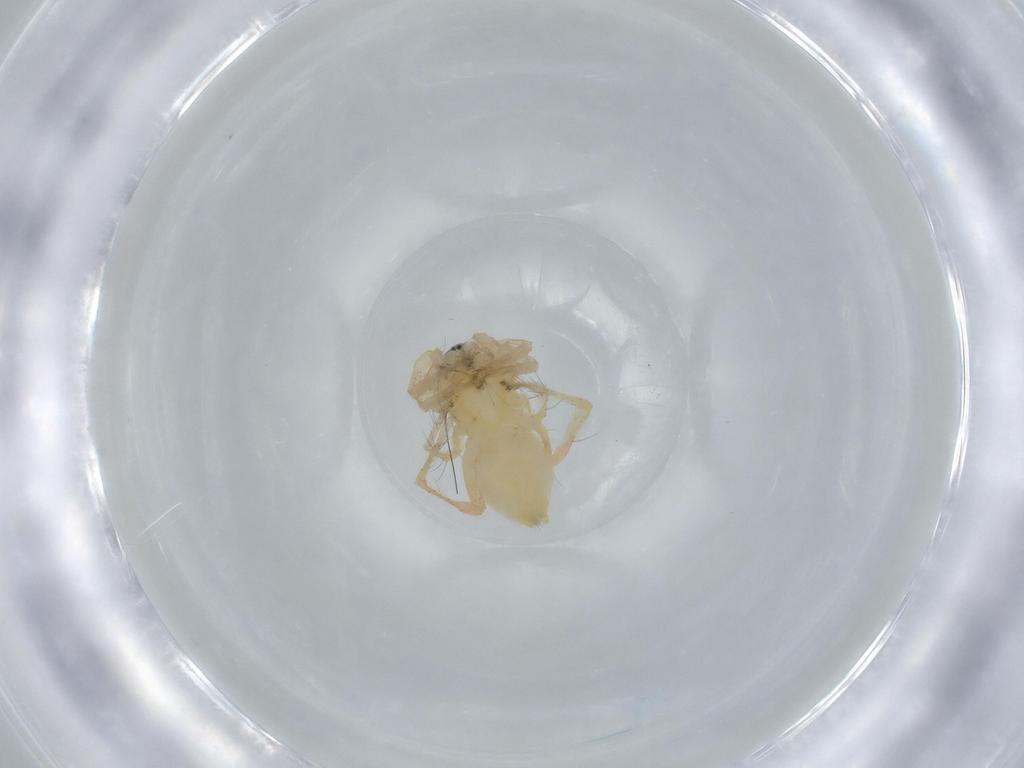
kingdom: Animalia
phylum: Arthropoda
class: Arachnida
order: Araneae
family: Anyphaenidae
